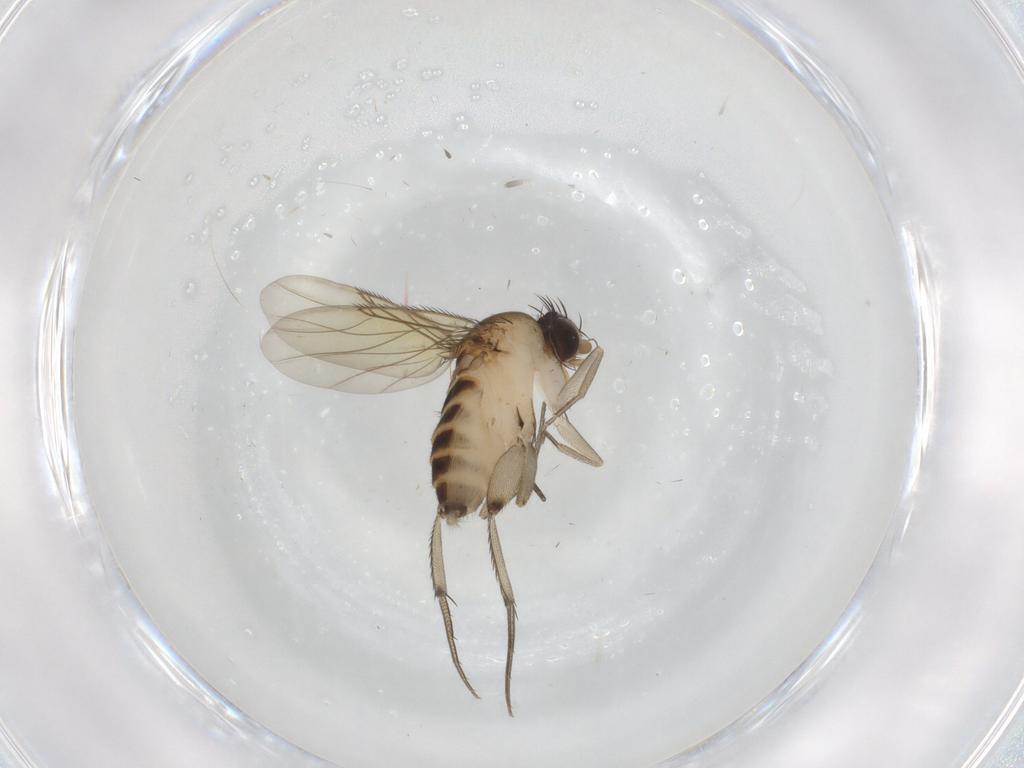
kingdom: Animalia
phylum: Arthropoda
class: Insecta
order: Diptera
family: Phoridae
